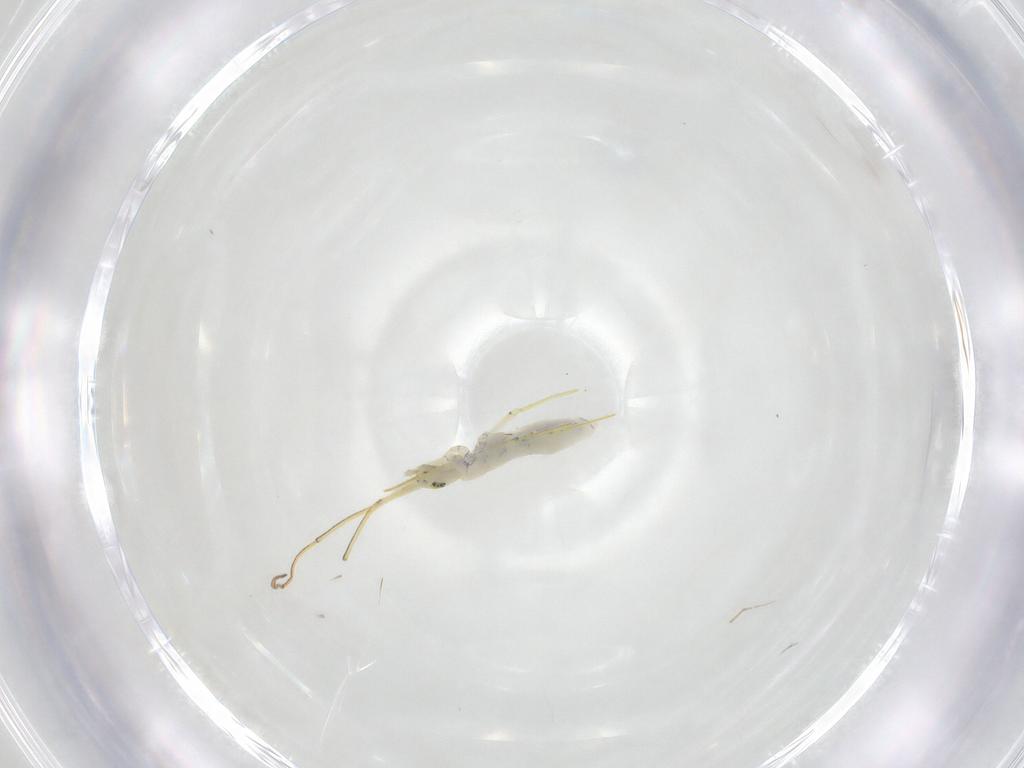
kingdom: Animalia
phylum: Arthropoda
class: Collembola
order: Entomobryomorpha
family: Entomobryidae
